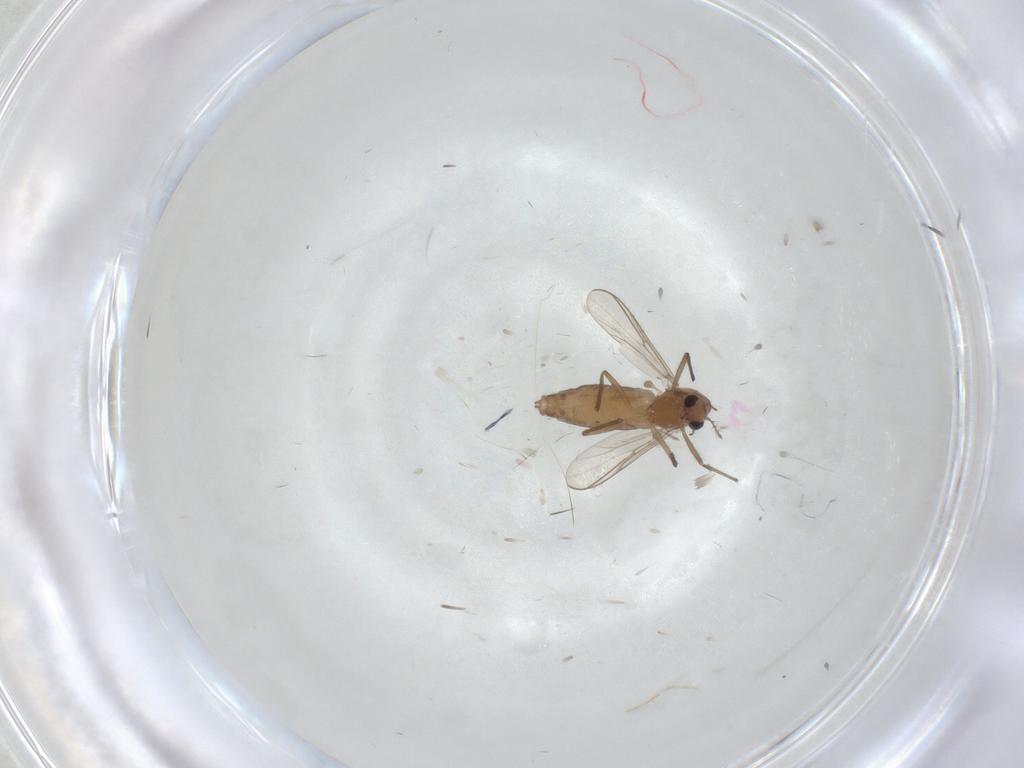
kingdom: Animalia
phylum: Arthropoda
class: Insecta
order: Diptera
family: Chironomidae
